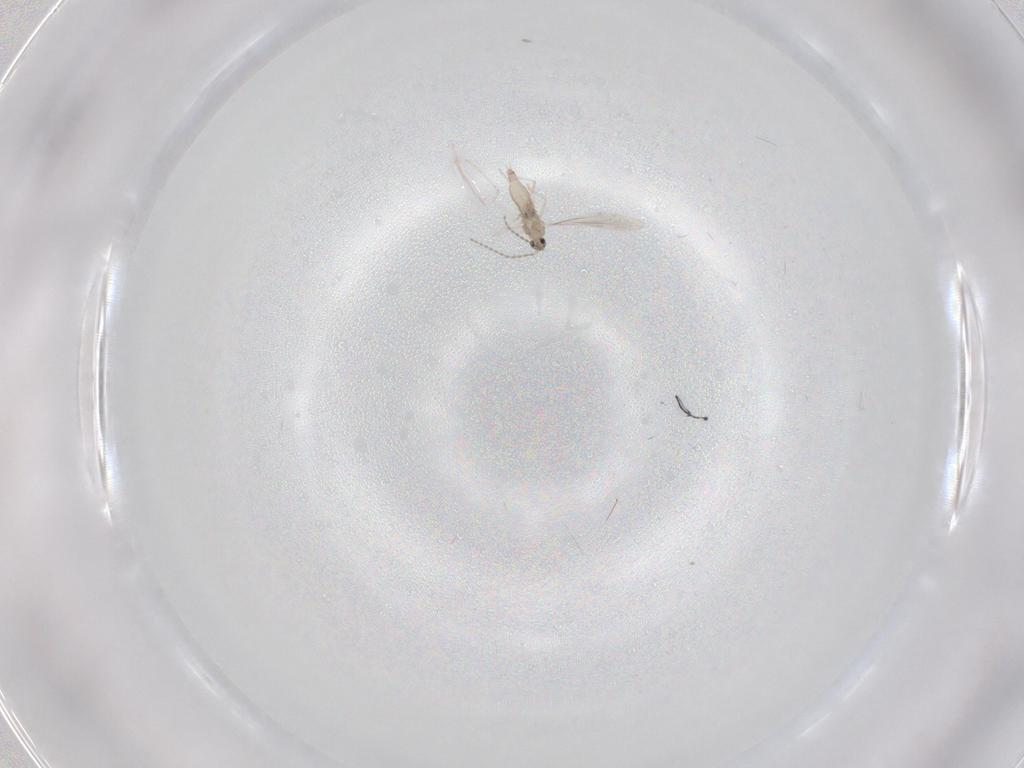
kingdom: Animalia
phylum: Arthropoda
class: Insecta
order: Diptera
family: Cecidomyiidae
